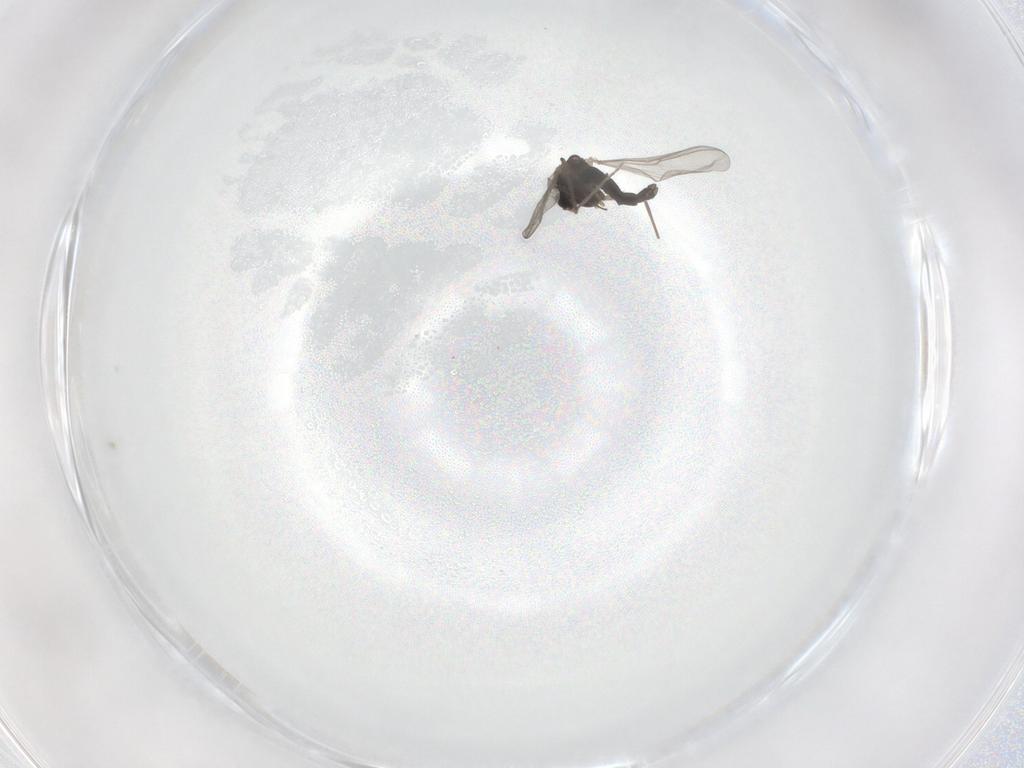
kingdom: Animalia
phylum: Arthropoda
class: Insecta
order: Diptera
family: Chironomidae
